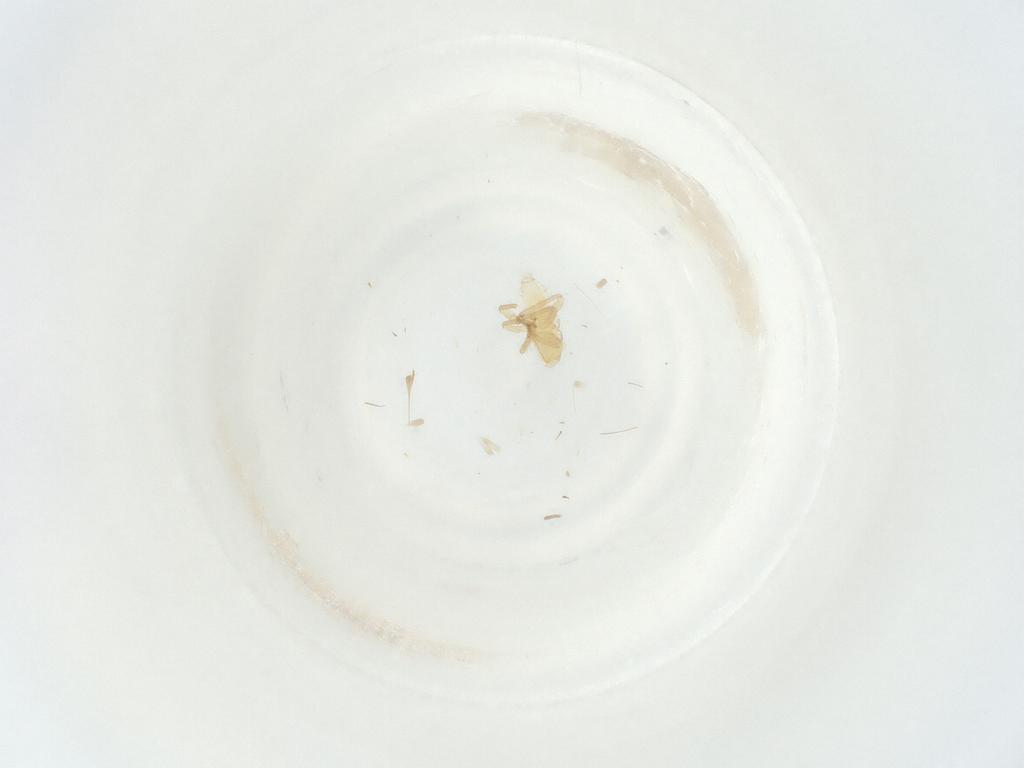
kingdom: Animalia
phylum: Arthropoda
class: Insecta
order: Hemiptera
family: Miridae
